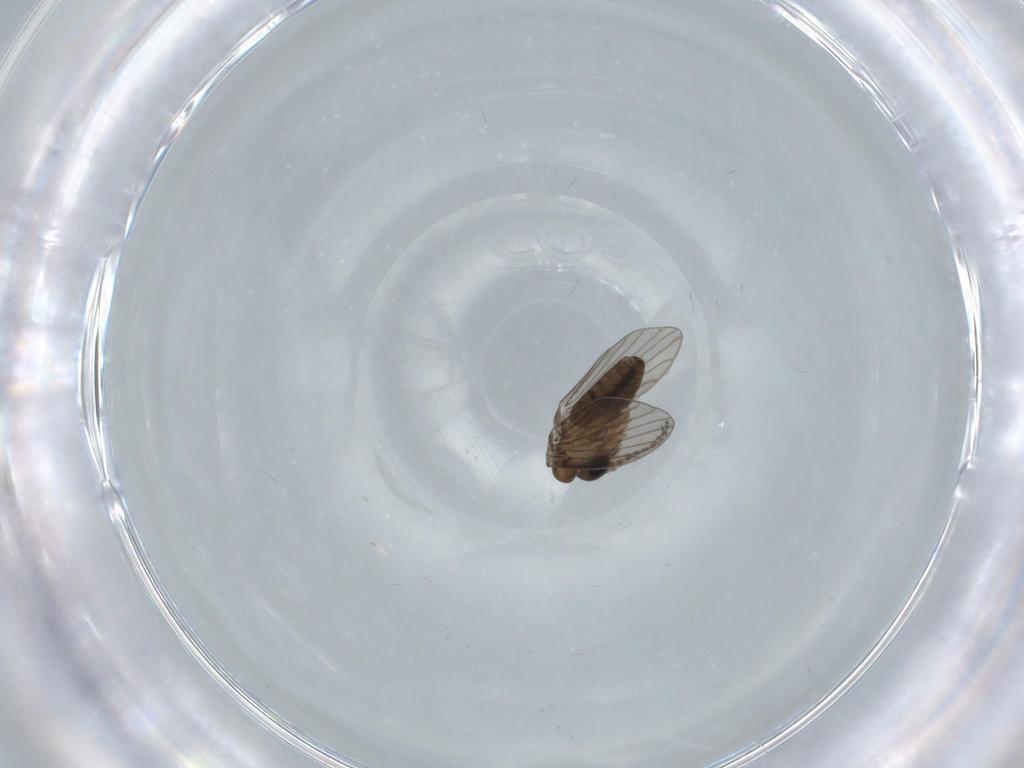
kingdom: Animalia
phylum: Arthropoda
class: Insecta
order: Diptera
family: Psychodidae
